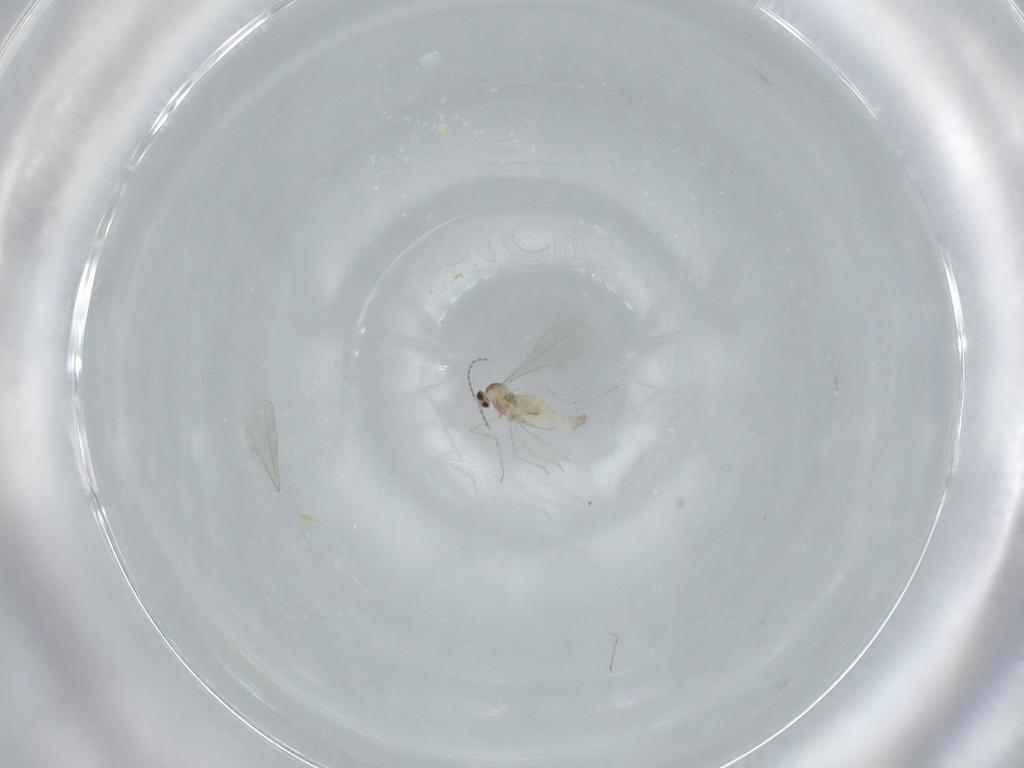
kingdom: Animalia
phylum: Arthropoda
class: Insecta
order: Diptera
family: Cecidomyiidae
